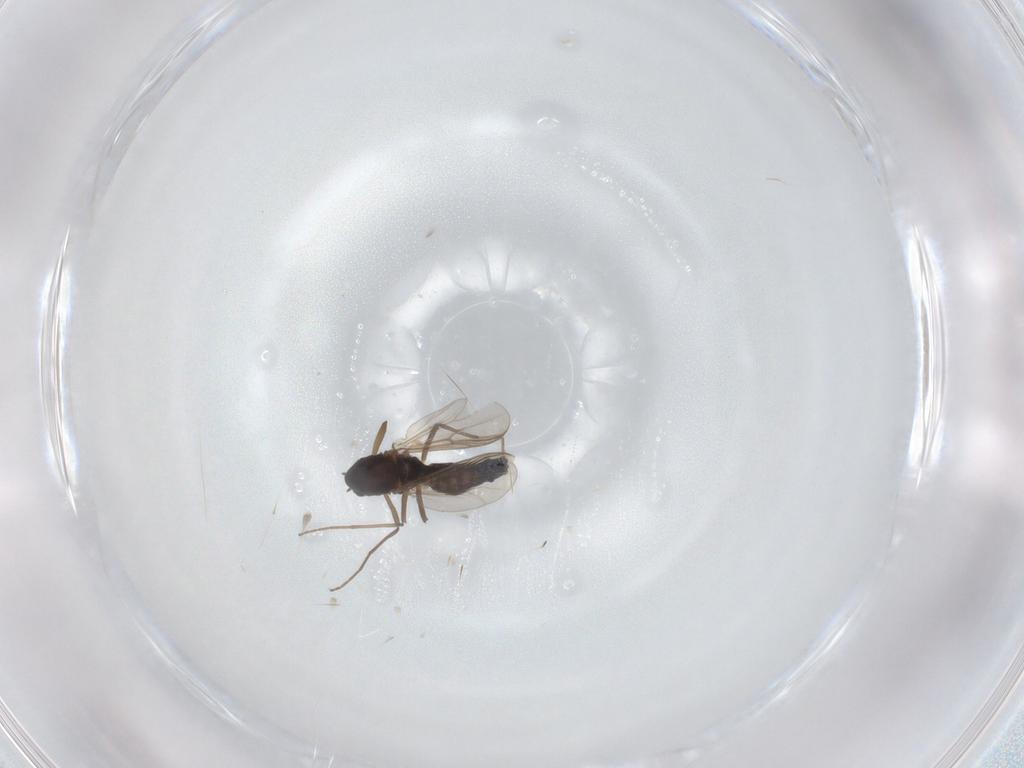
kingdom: Animalia
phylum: Arthropoda
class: Insecta
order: Diptera
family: Chironomidae
